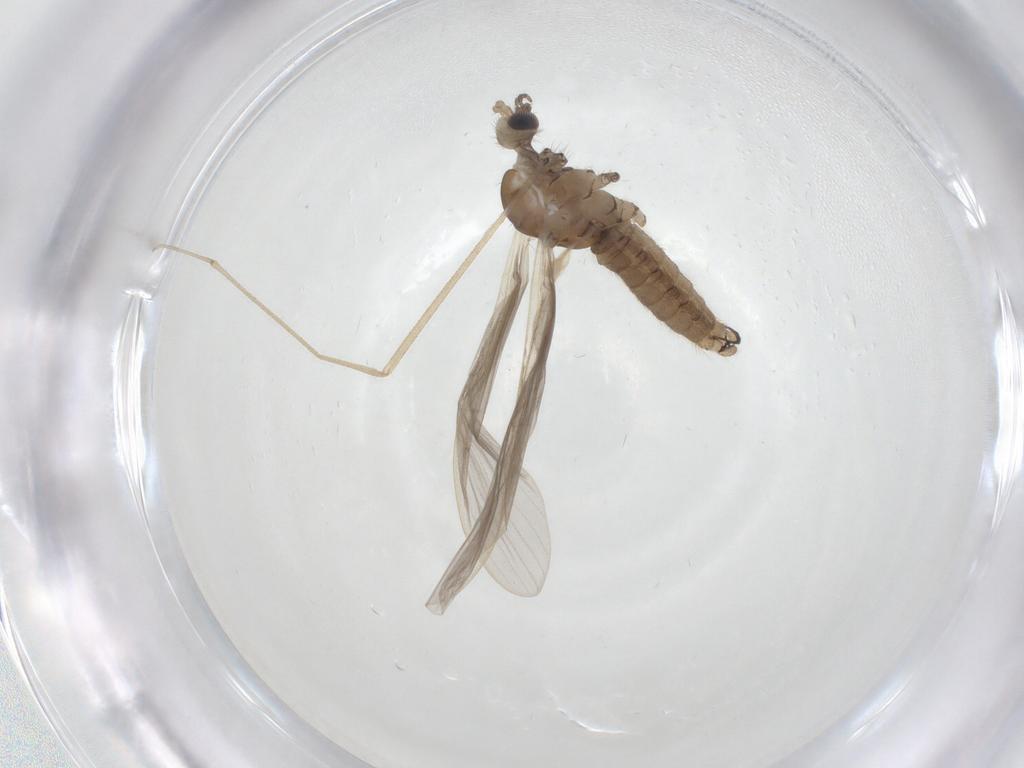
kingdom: Animalia
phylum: Arthropoda
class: Insecta
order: Diptera
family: Limoniidae
